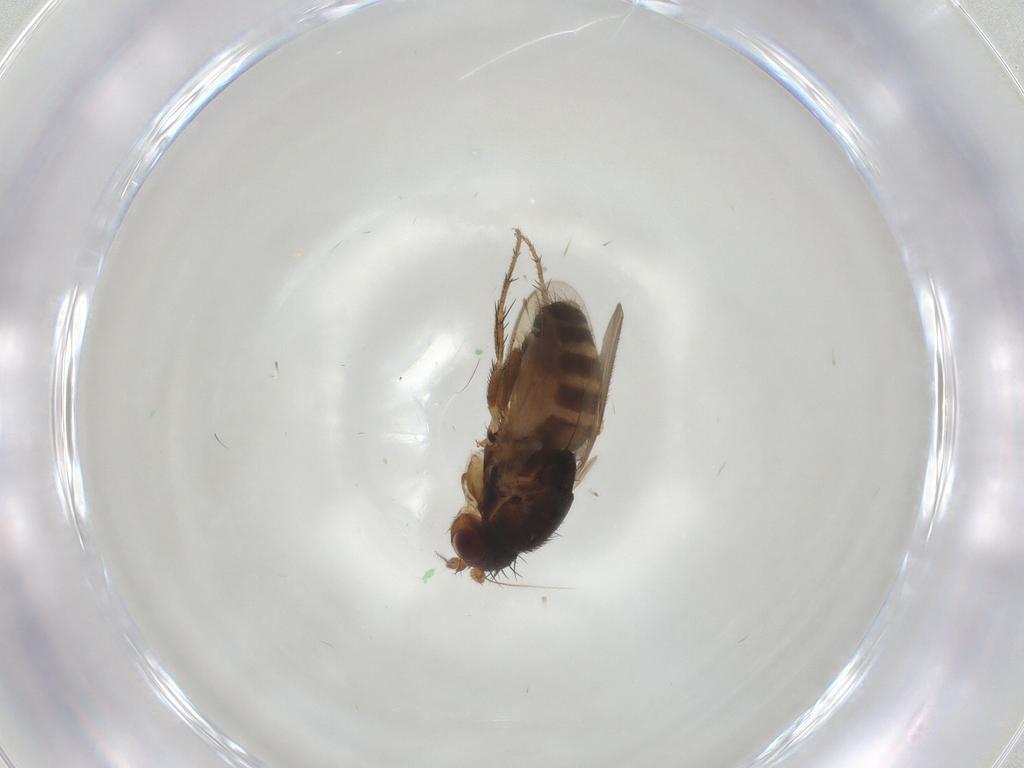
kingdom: Animalia
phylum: Arthropoda
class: Insecta
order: Diptera
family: Sphaeroceridae
